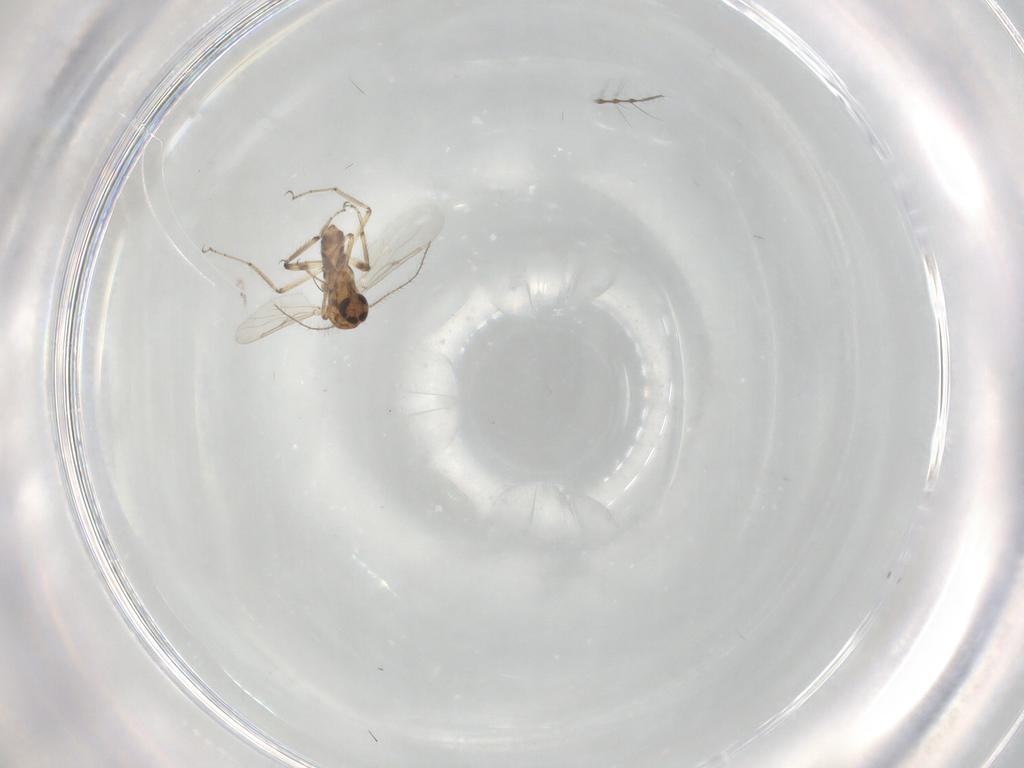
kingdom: Animalia
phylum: Arthropoda
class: Insecta
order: Diptera
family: Ceratopogonidae
